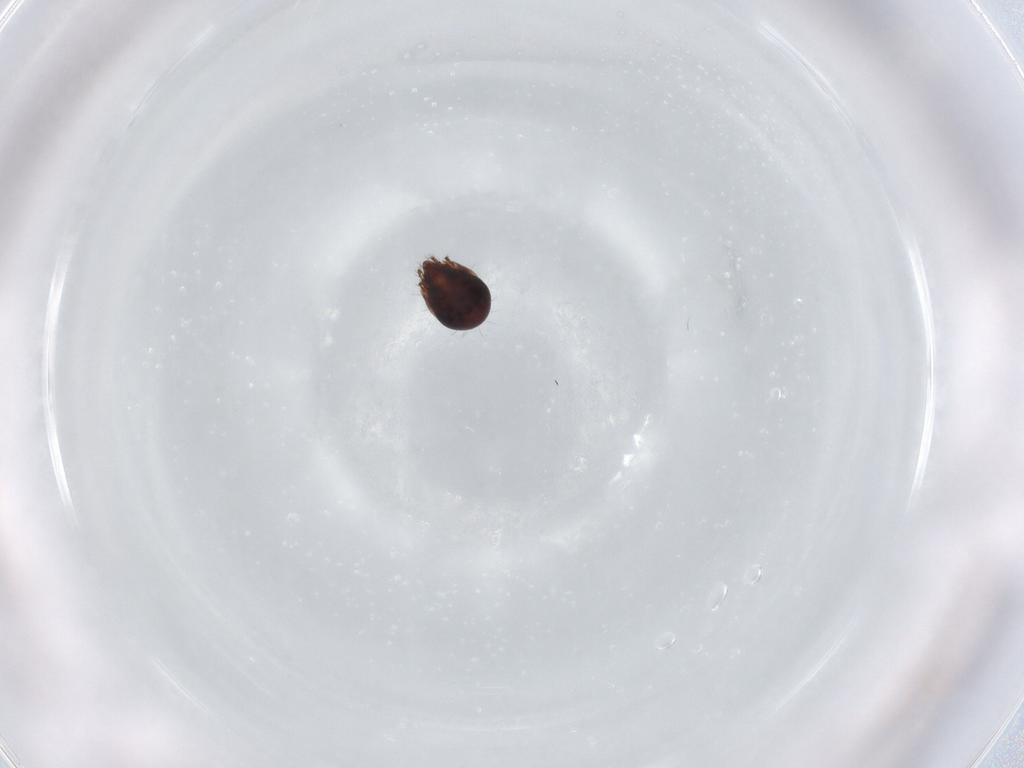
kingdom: Animalia
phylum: Arthropoda
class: Arachnida
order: Sarcoptiformes
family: Humerobatidae
